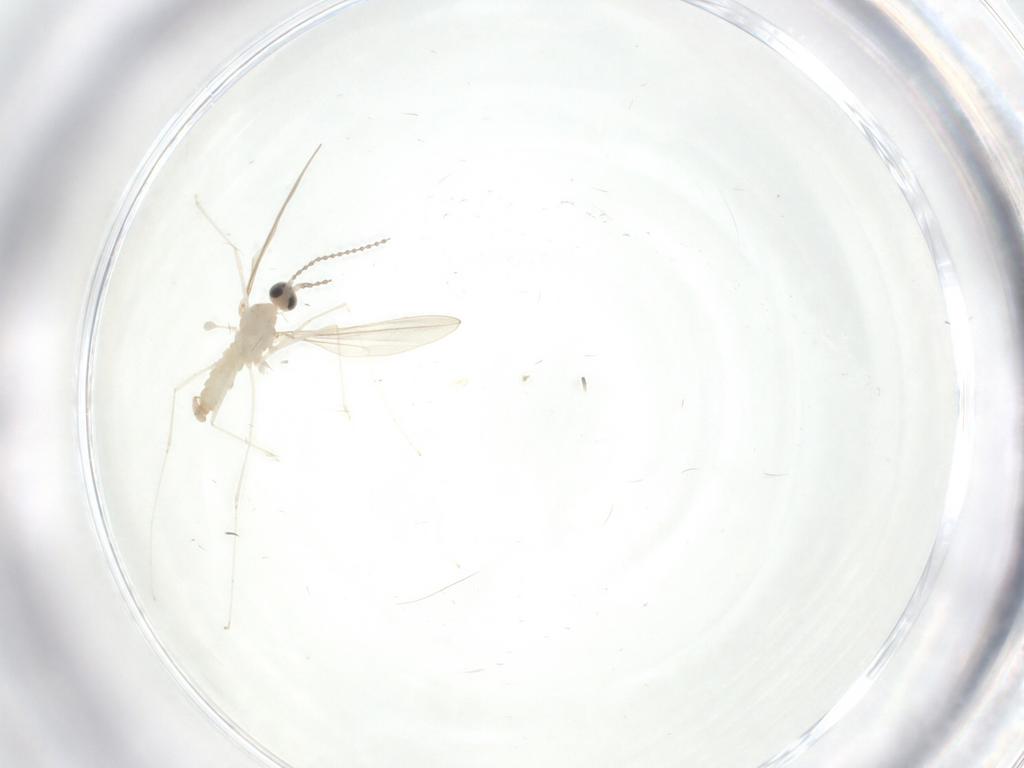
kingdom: Animalia
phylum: Arthropoda
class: Insecta
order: Diptera
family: Cecidomyiidae
